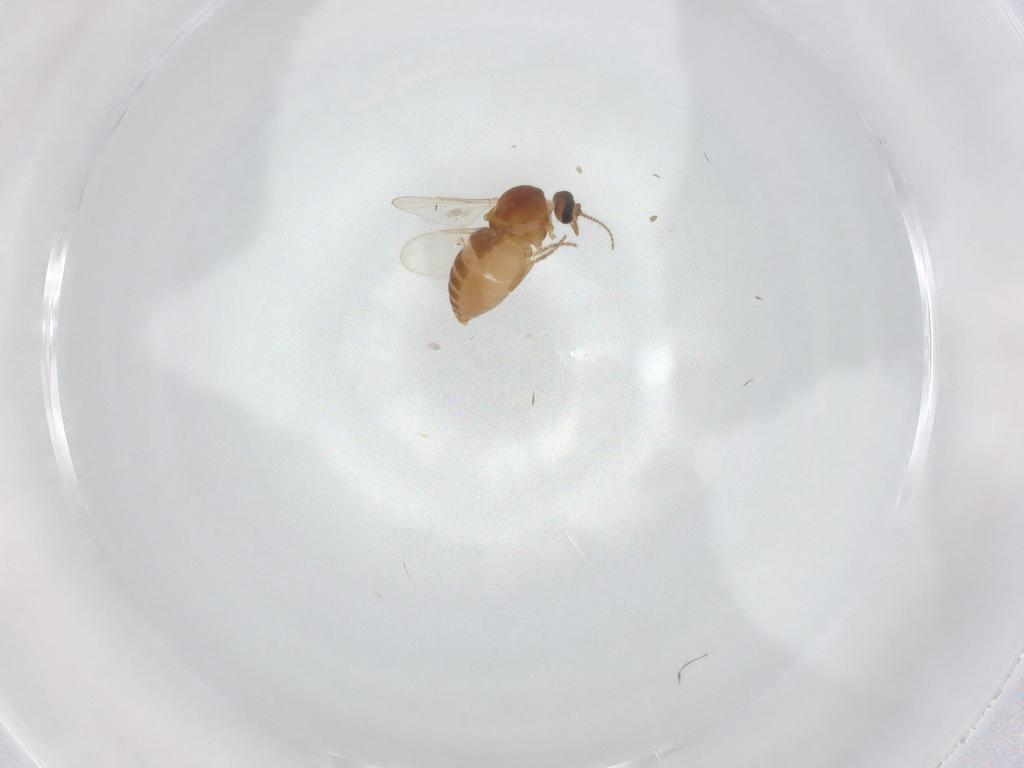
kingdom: Animalia
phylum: Arthropoda
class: Insecta
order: Diptera
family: Ceratopogonidae
